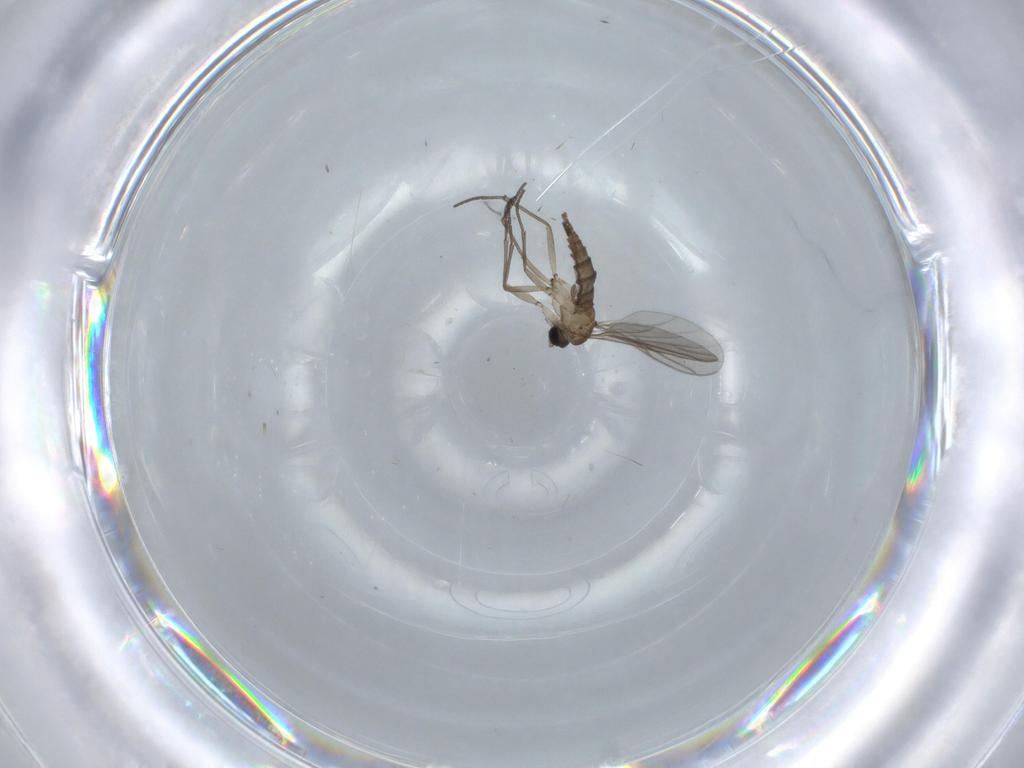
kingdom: Animalia
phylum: Arthropoda
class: Insecta
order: Diptera
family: Sciaridae
